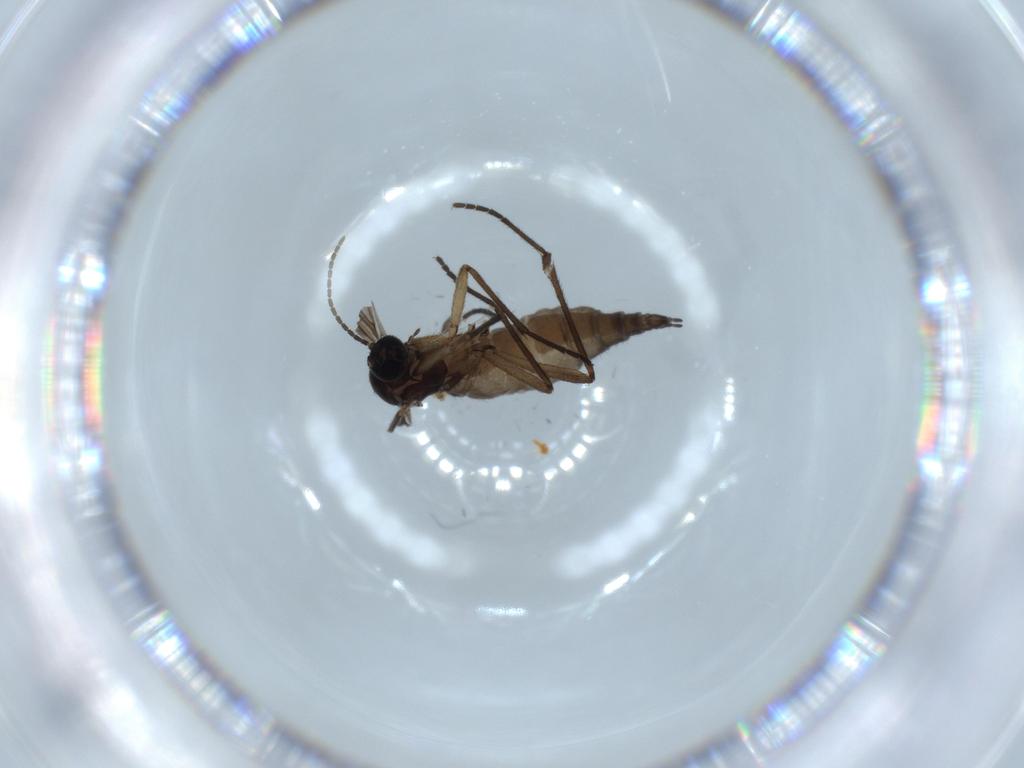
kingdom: Animalia
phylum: Arthropoda
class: Insecta
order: Diptera
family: Sciaridae
